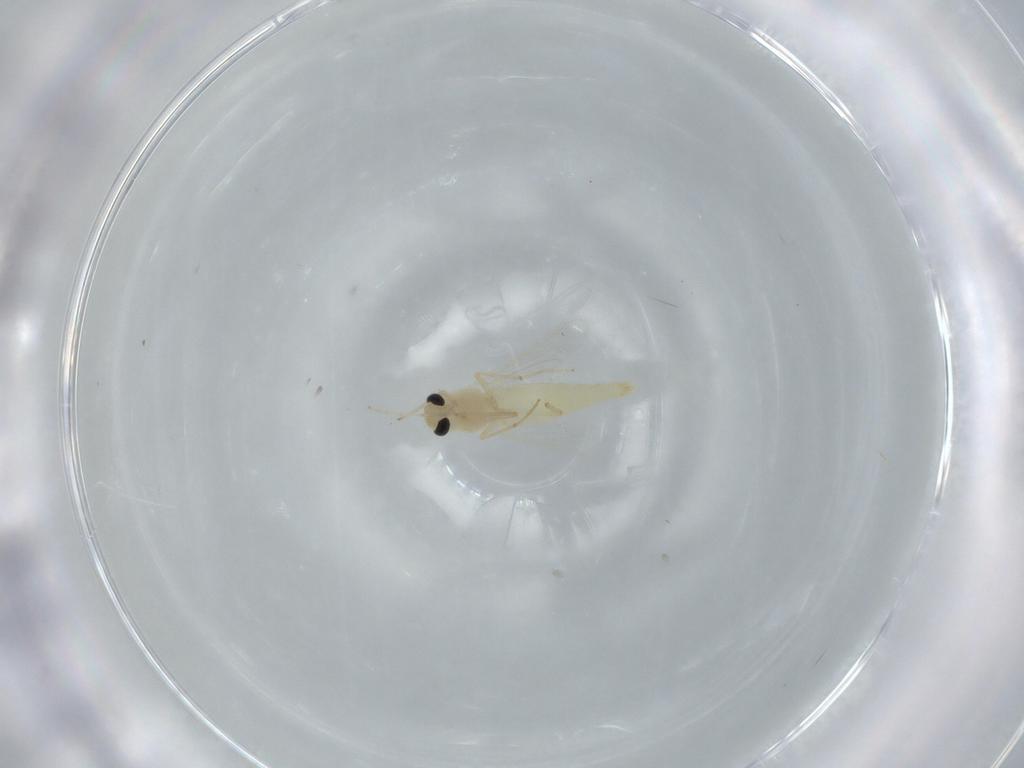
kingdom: Animalia
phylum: Arthropoda
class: Insecta
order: Diptera
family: Chironomidae
